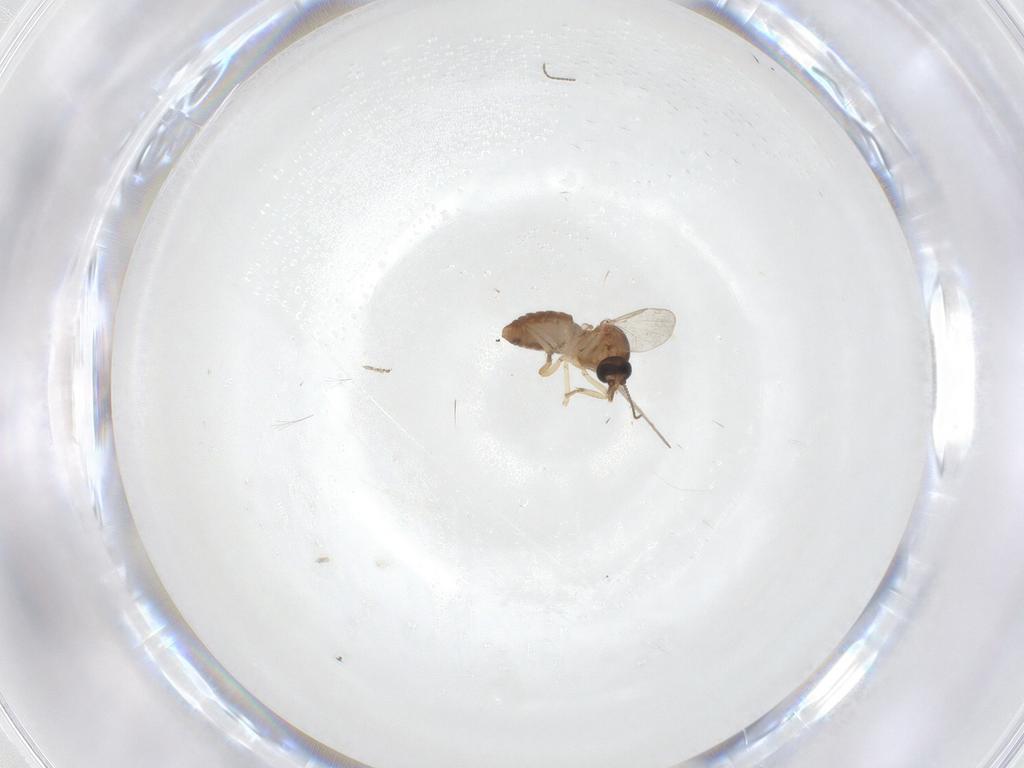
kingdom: Animalia
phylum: Arthropoda
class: Insecta
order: Diptera
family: Ceratopogonidae
